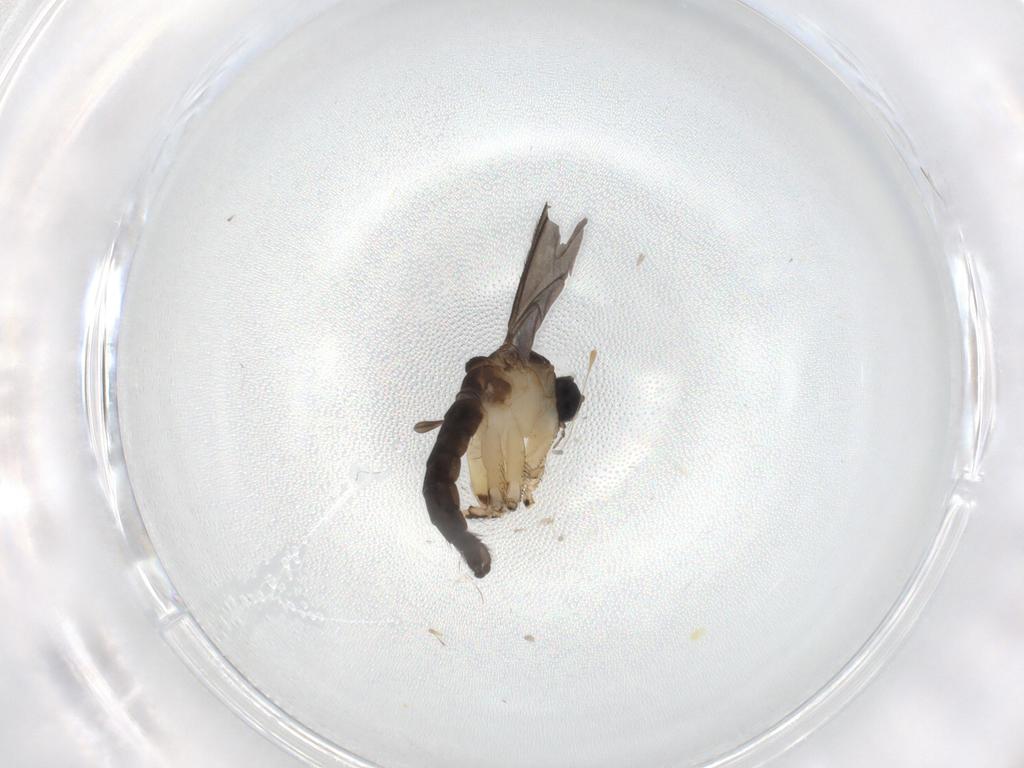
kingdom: Animalia
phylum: Arthropoda
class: Insecta
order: Diptera
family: Sciaridae
